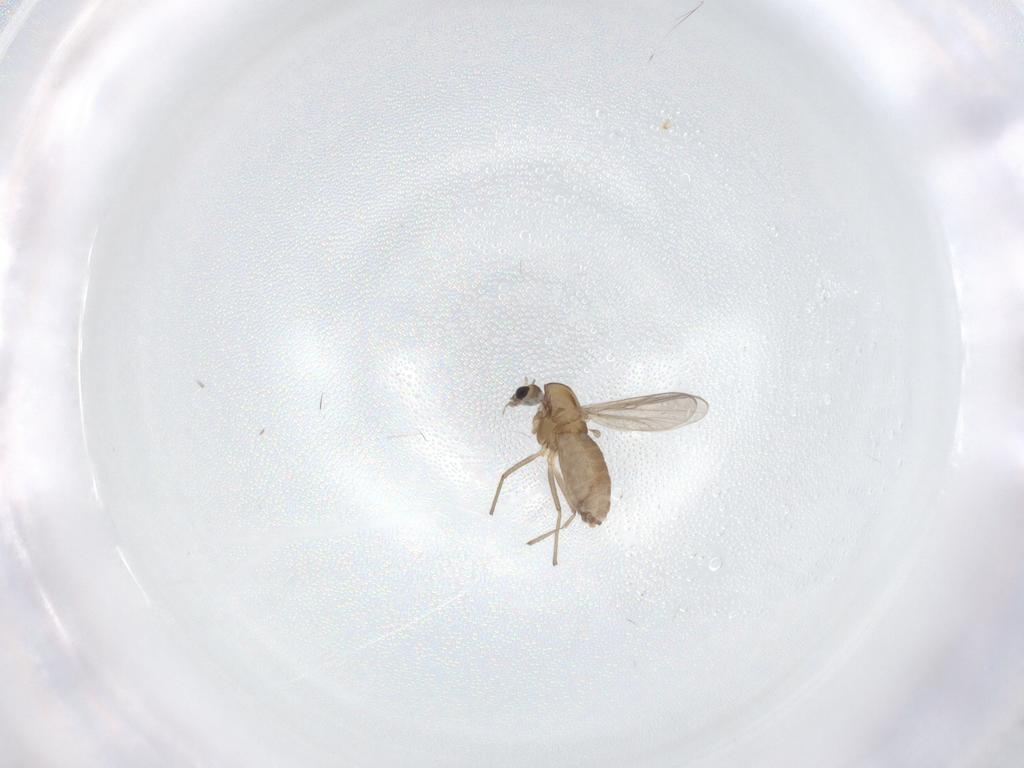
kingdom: Animalia
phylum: Arthropoda
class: Insecta
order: Diptera
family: Chironomidae
